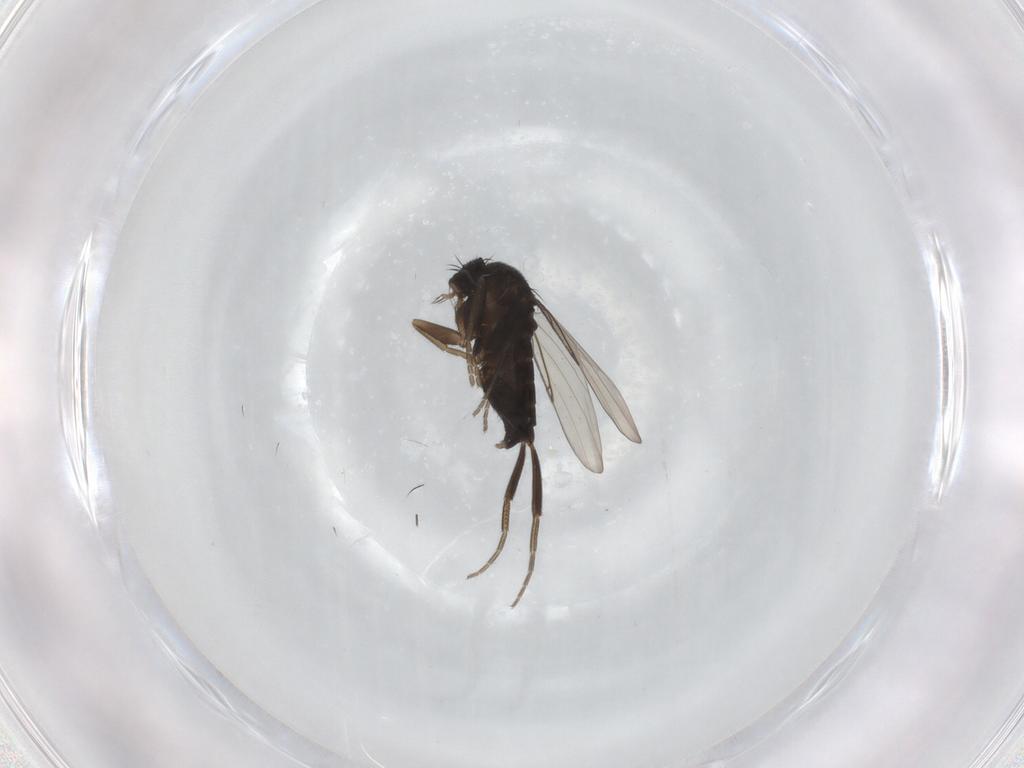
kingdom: Animalia
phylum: Arthropoda
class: Insecta
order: Diptera
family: Phoridae
